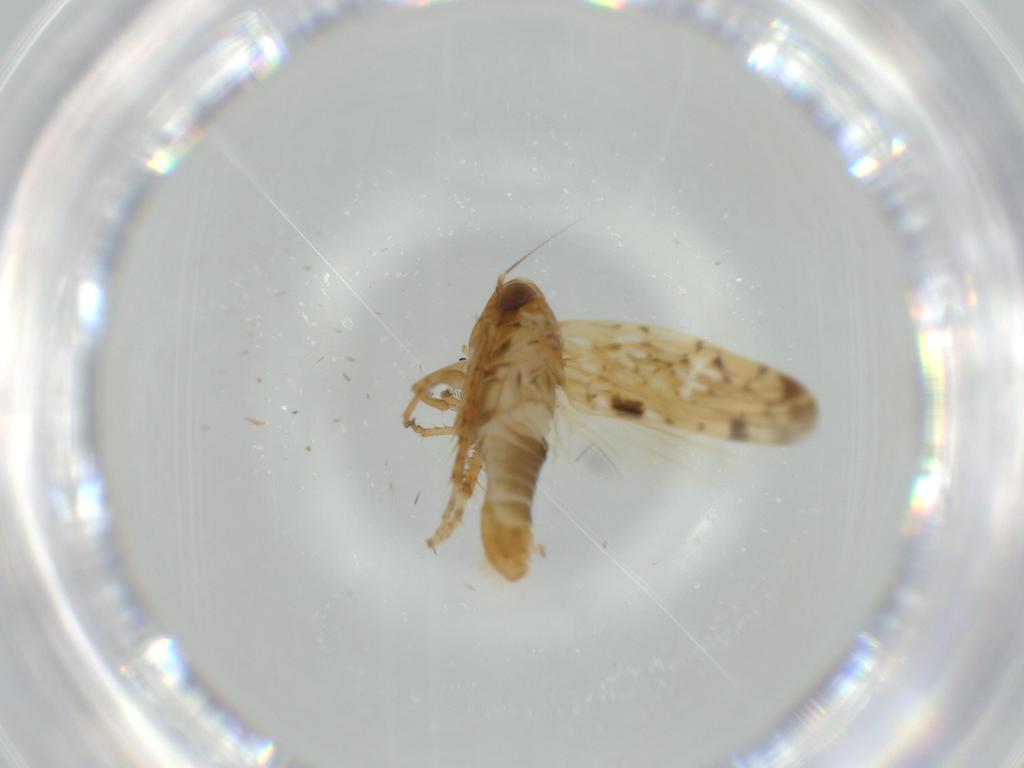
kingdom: Animalia
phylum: Arthropoda
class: Insecta
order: Hemiptera
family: Cicadellidae
